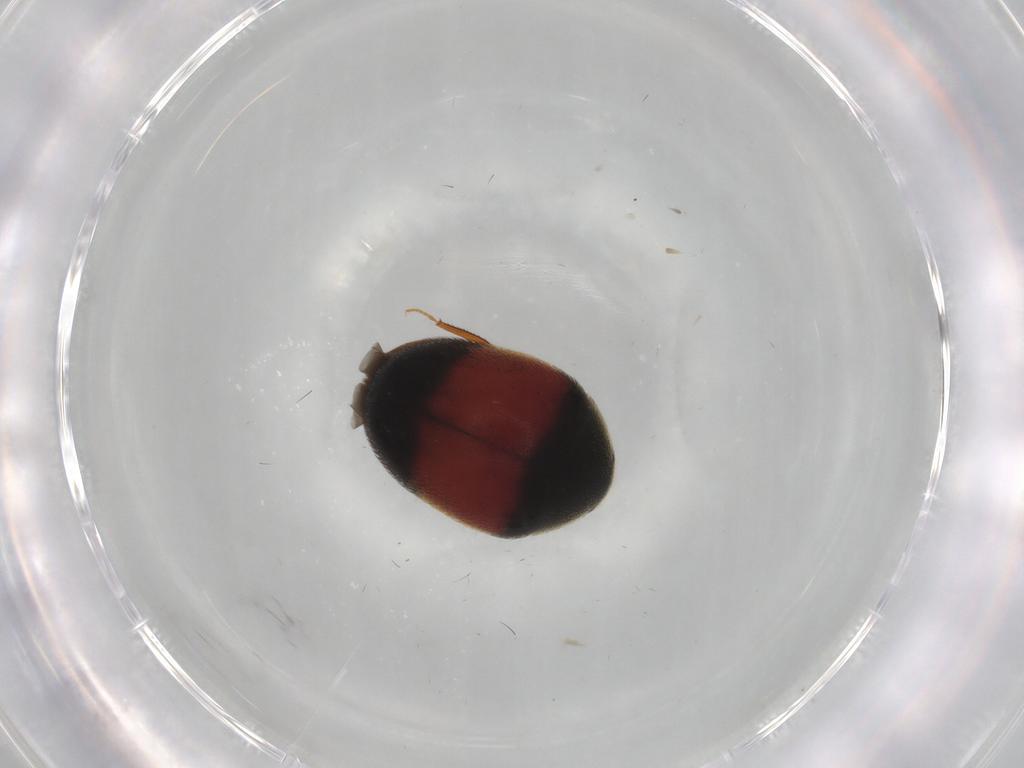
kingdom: Animalia
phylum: Arthropoda
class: Insecta
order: Coleoptera
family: Dermestidae
